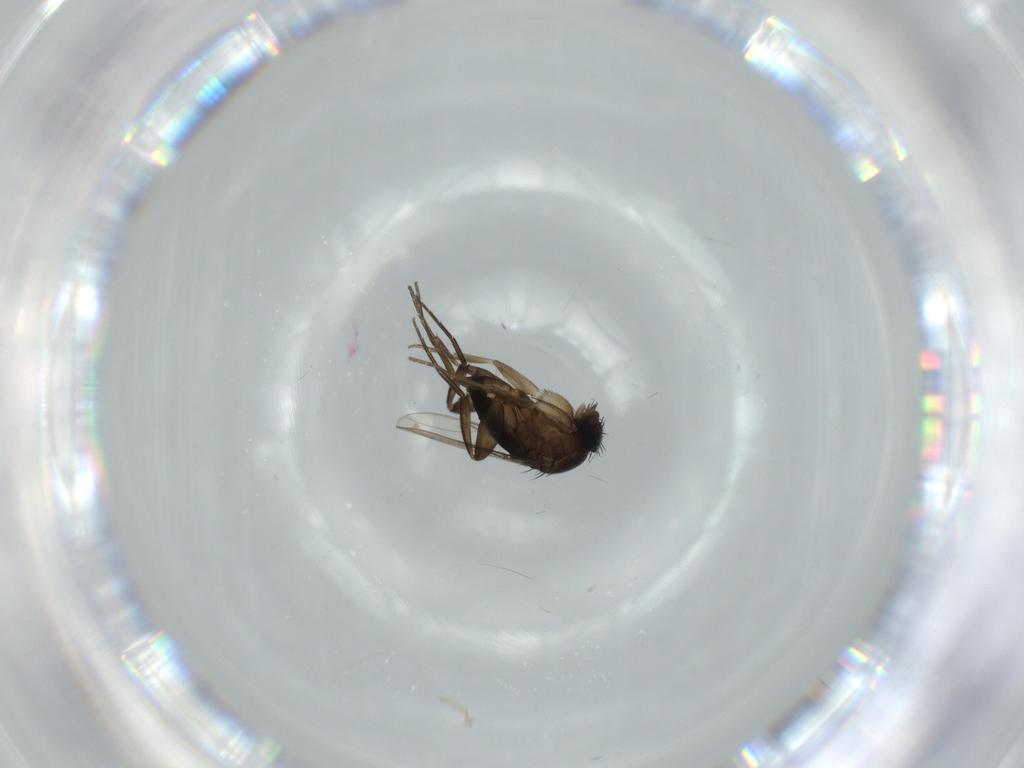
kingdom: Animalia
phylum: Arthropoda
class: Insecta
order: Diptera
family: Phoridae
